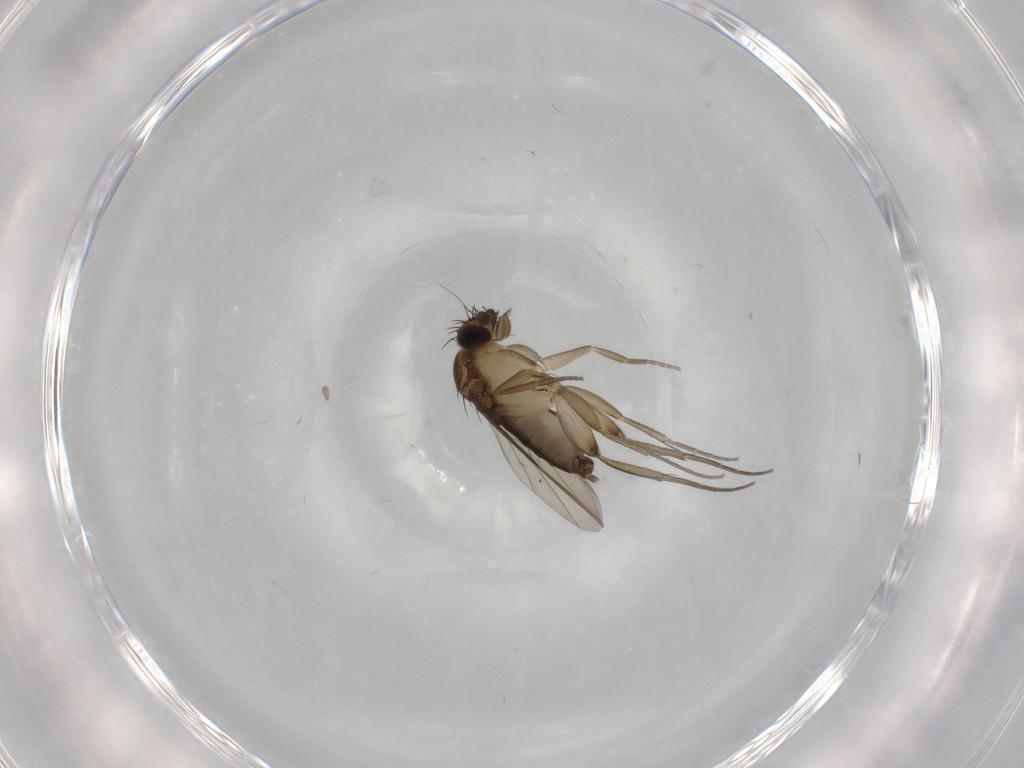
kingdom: Animalia
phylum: Arthropoda
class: Insecta
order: Diptera
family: Phoridae
